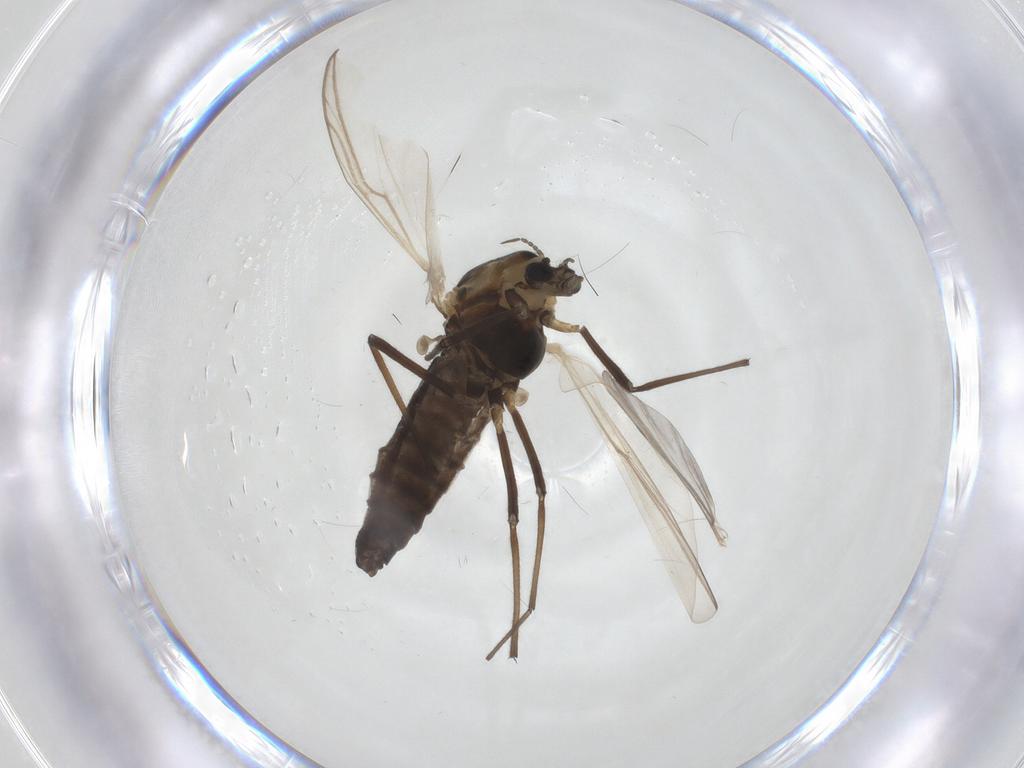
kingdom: Animalia
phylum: Arthropoda
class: Insecta
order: Diptera
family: Chironomidae
